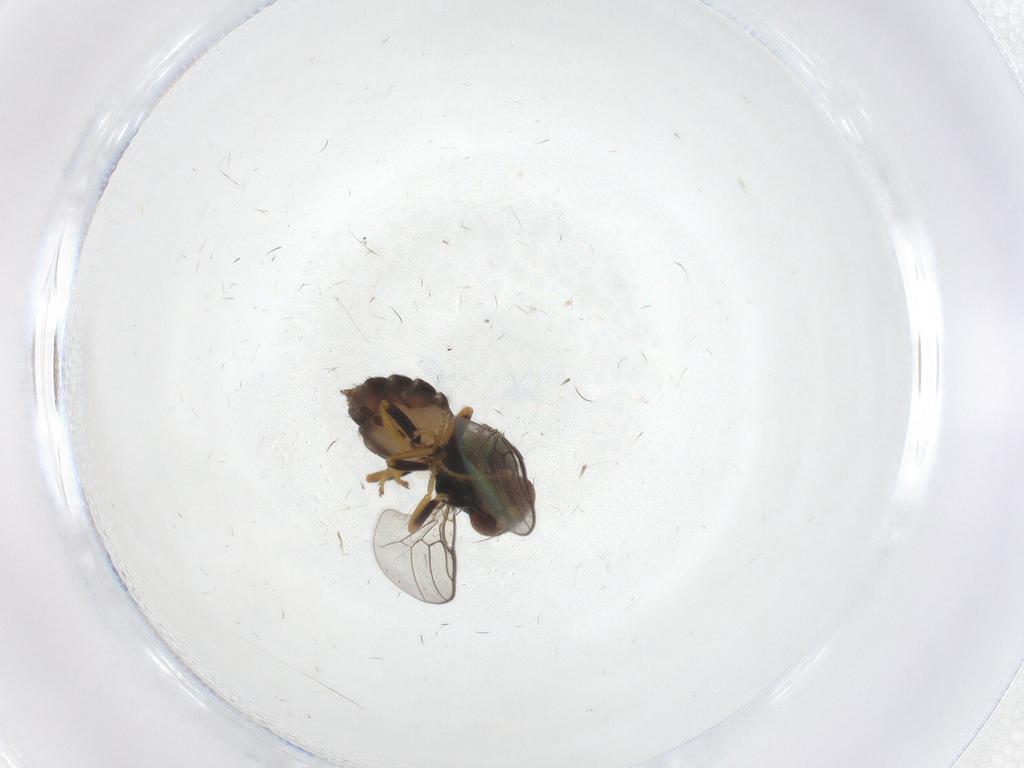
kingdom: Animalia
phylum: Arthropoda
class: Insecta
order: Diptera
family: Chloropidae
